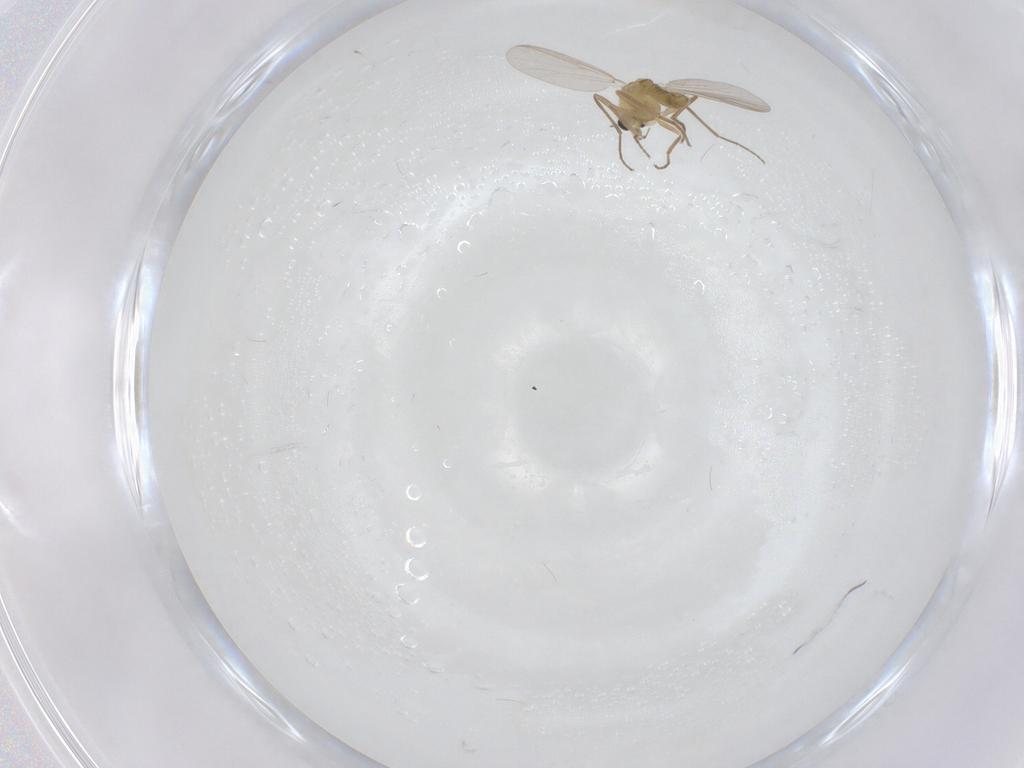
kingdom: Animalia
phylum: Arthropoda
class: Insecta
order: Diptera
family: Chironomidae
